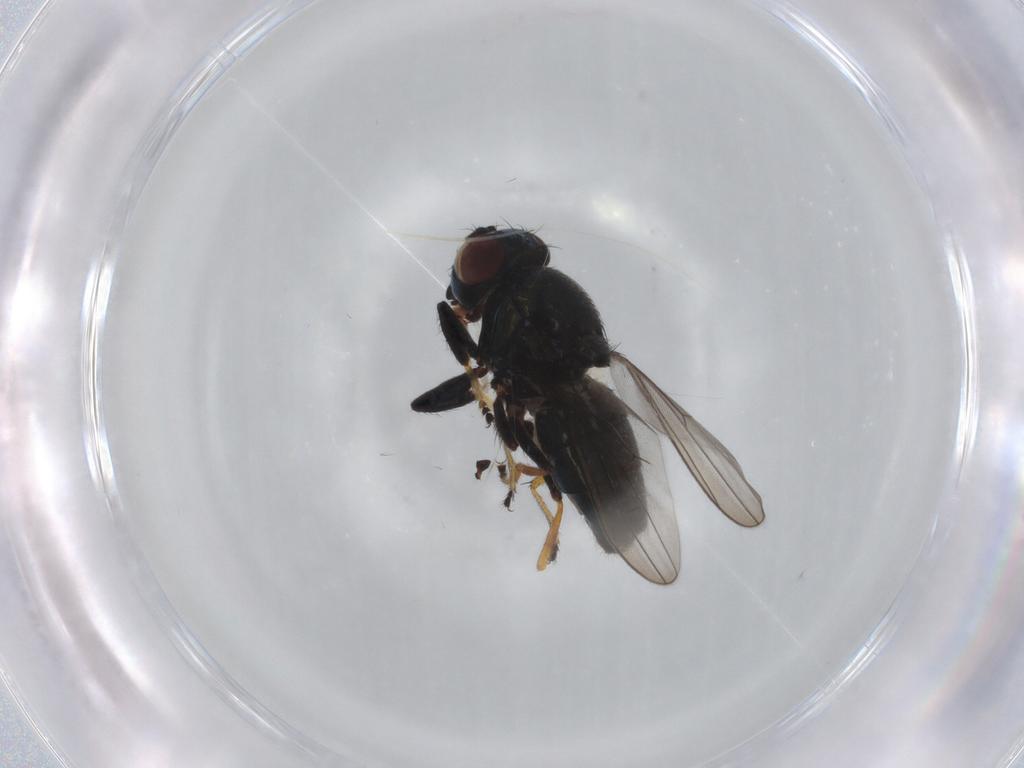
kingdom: Animalia
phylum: Arthropoda
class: Insecta
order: Diptera
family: Ephydridae
